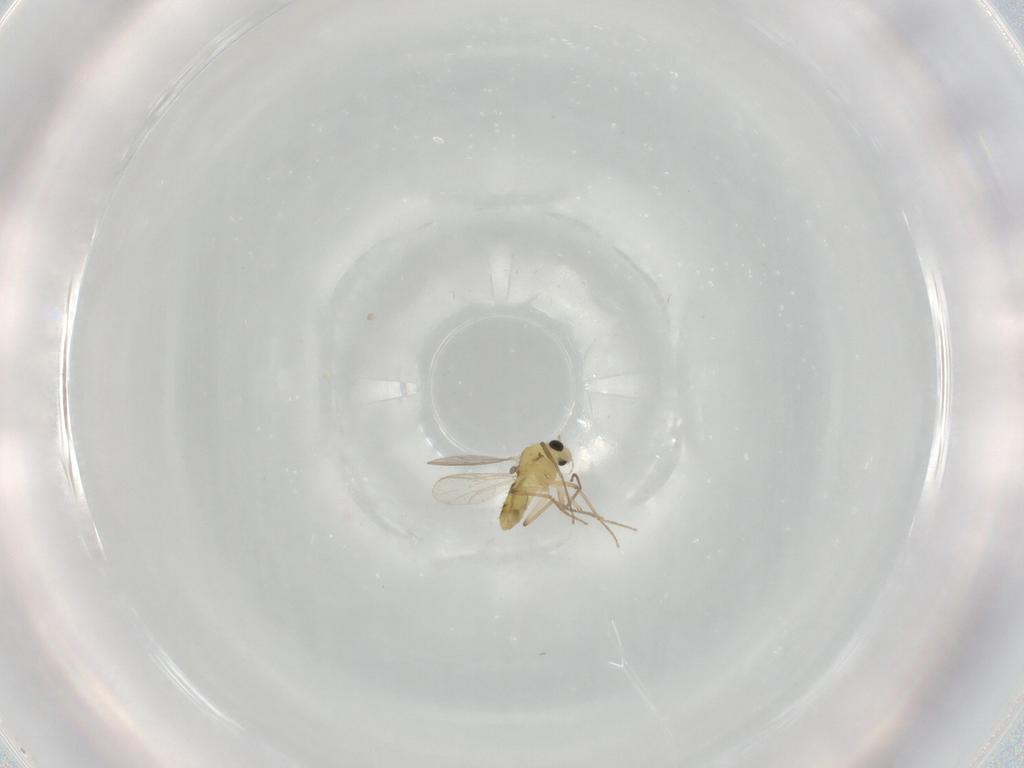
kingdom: Animalia
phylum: Arthropoda
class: Insecta
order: Diptera
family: Chironomidae
